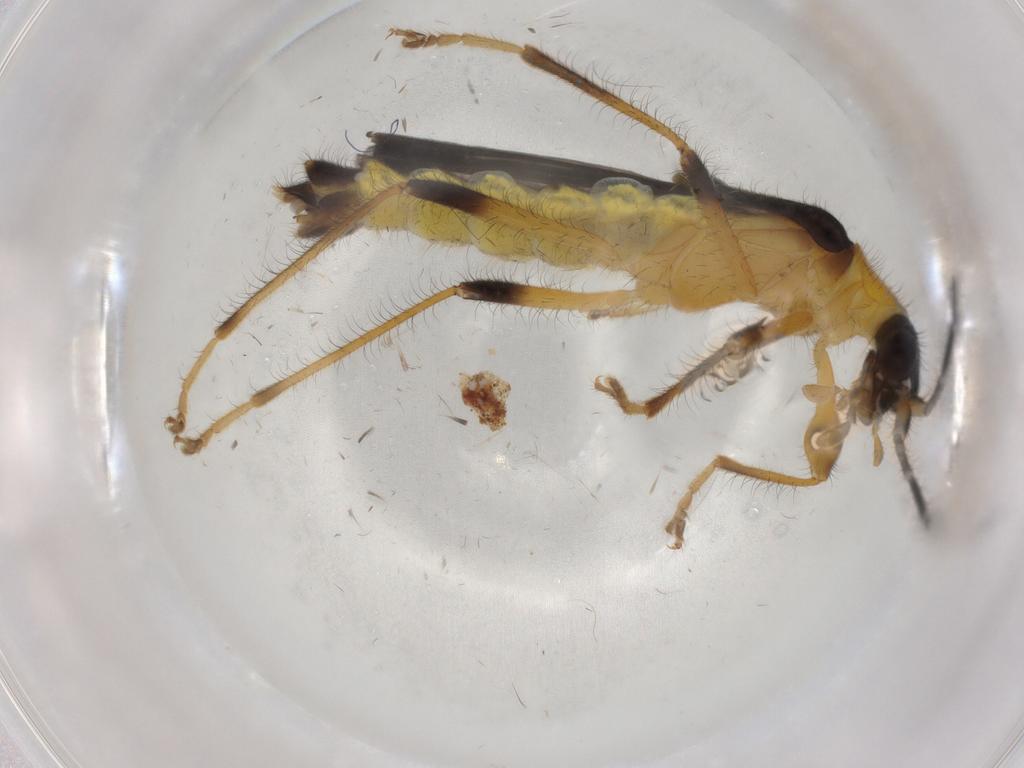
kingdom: Animalia
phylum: Arthropoda
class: Insecta
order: Coleoptera
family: Cantharidae
